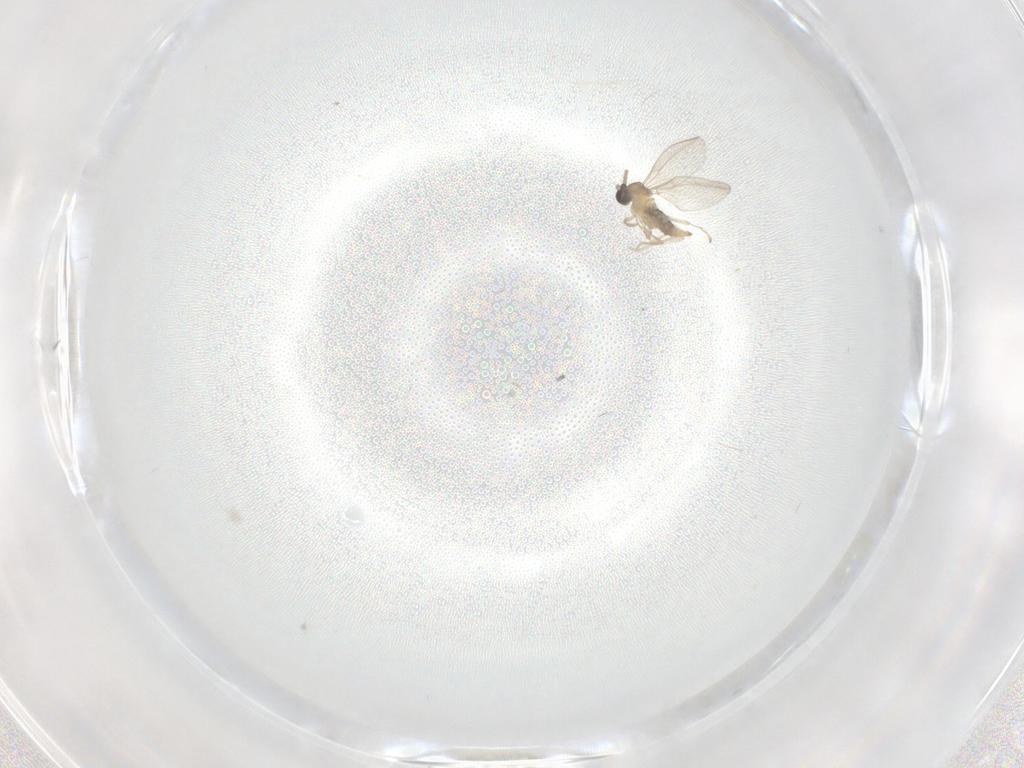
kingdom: Animalia
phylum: Arthropoda
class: Insecta
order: Diptera
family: Cecidomyiidae
